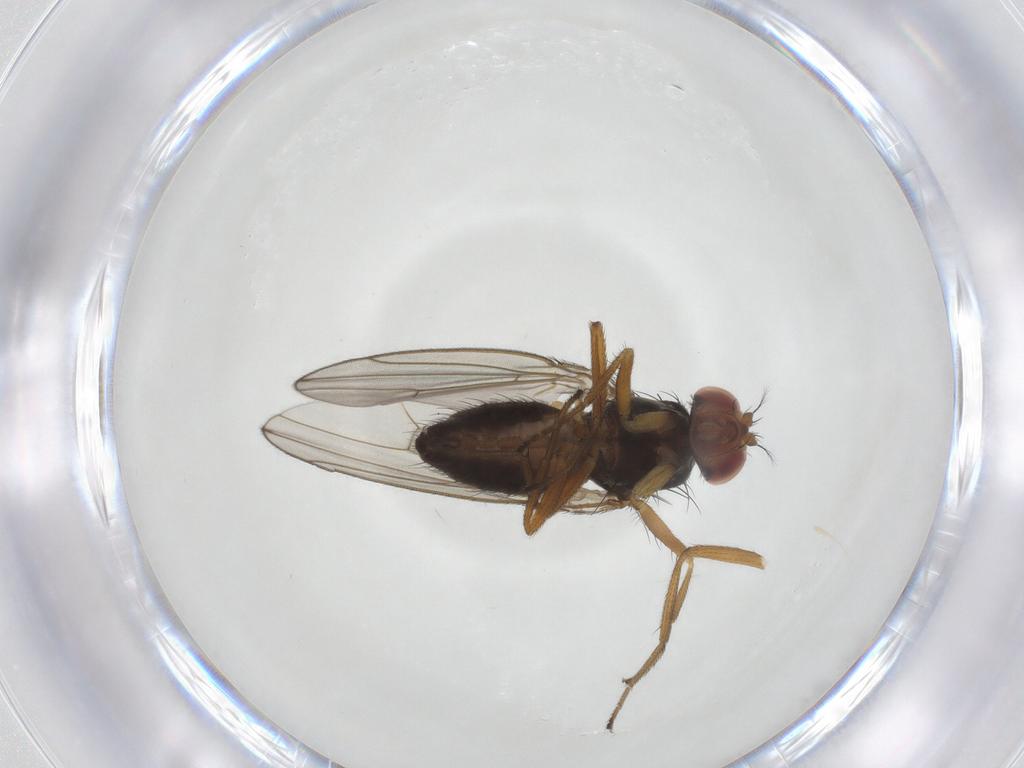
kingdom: Animalia
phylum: Arthropoda
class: Insecta
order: Diptera
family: Drosophilidae
